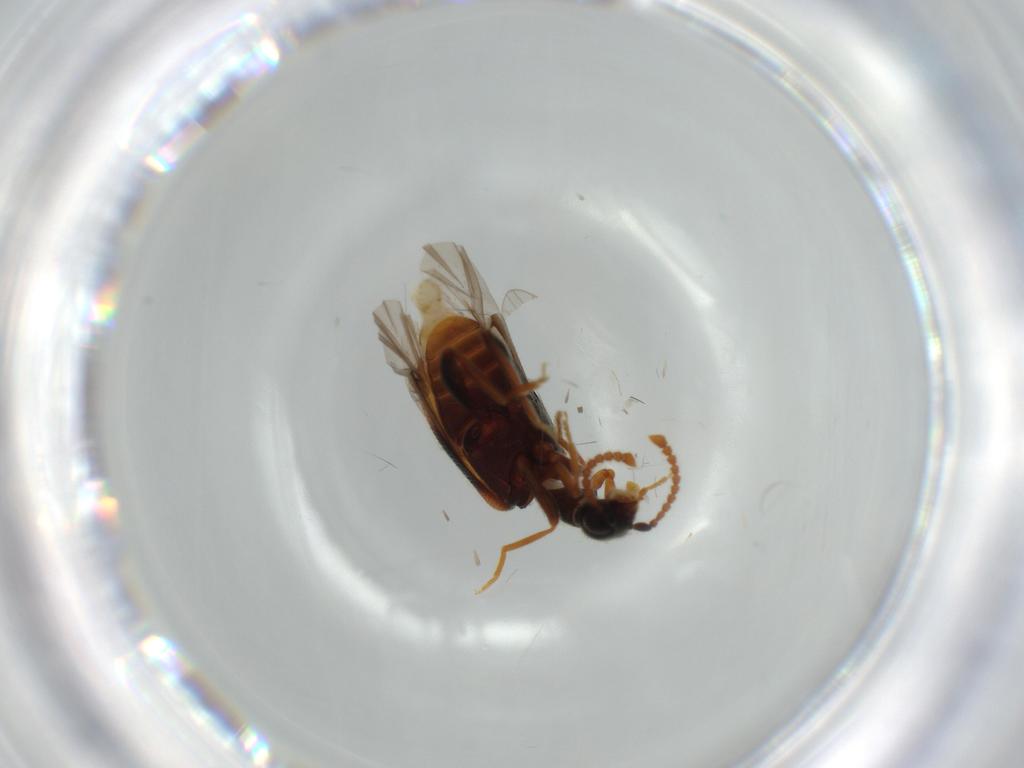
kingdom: Animalia
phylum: Arthropoda
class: Insecta
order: Coleoptera
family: Aderidae
